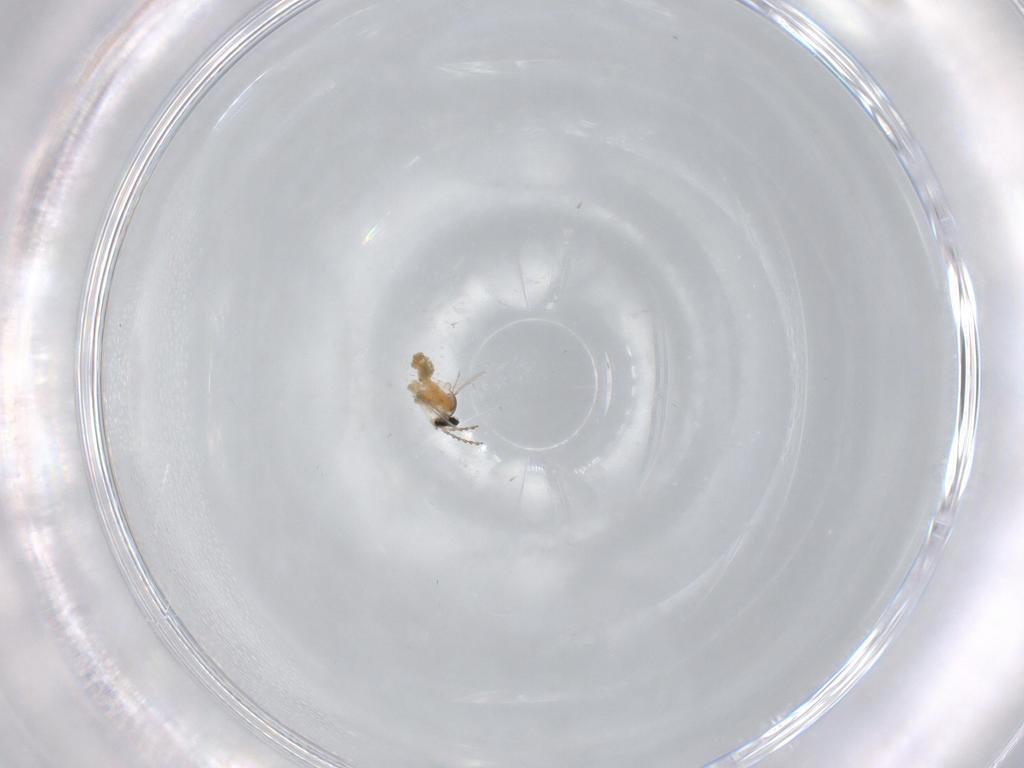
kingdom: Animalia
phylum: Arthropoda
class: Insecta
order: Diptera
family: Cecidomyiidae
